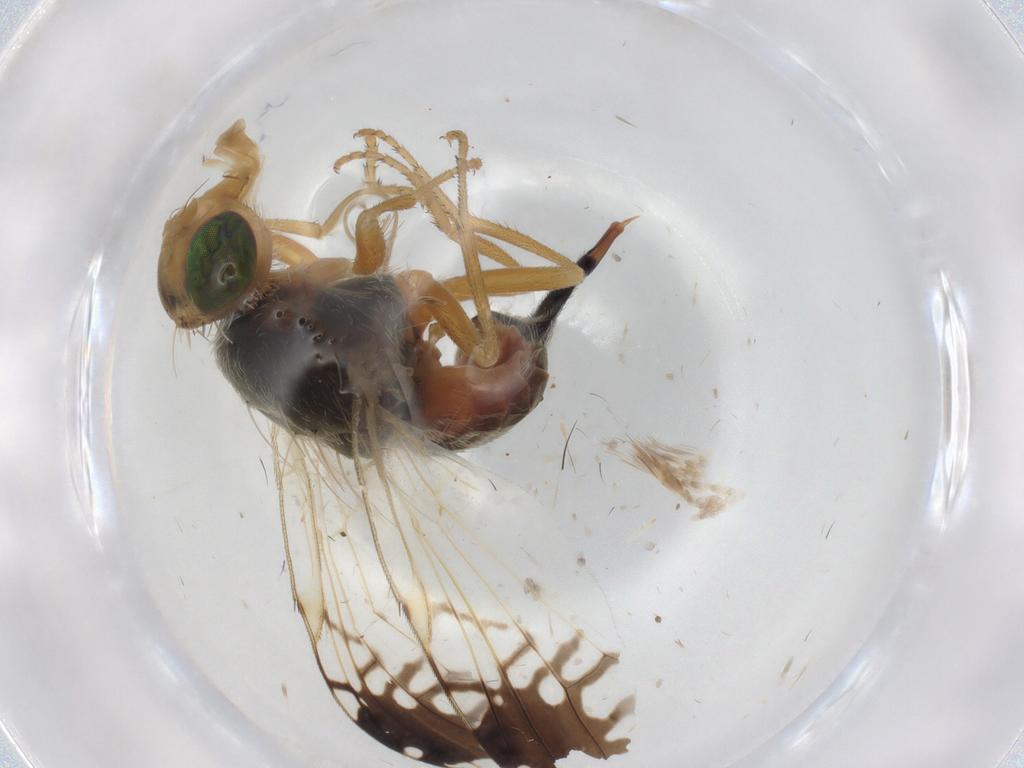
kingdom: Animalia
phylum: Arthropoda
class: Insecta
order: Diptera
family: Tephritidae
